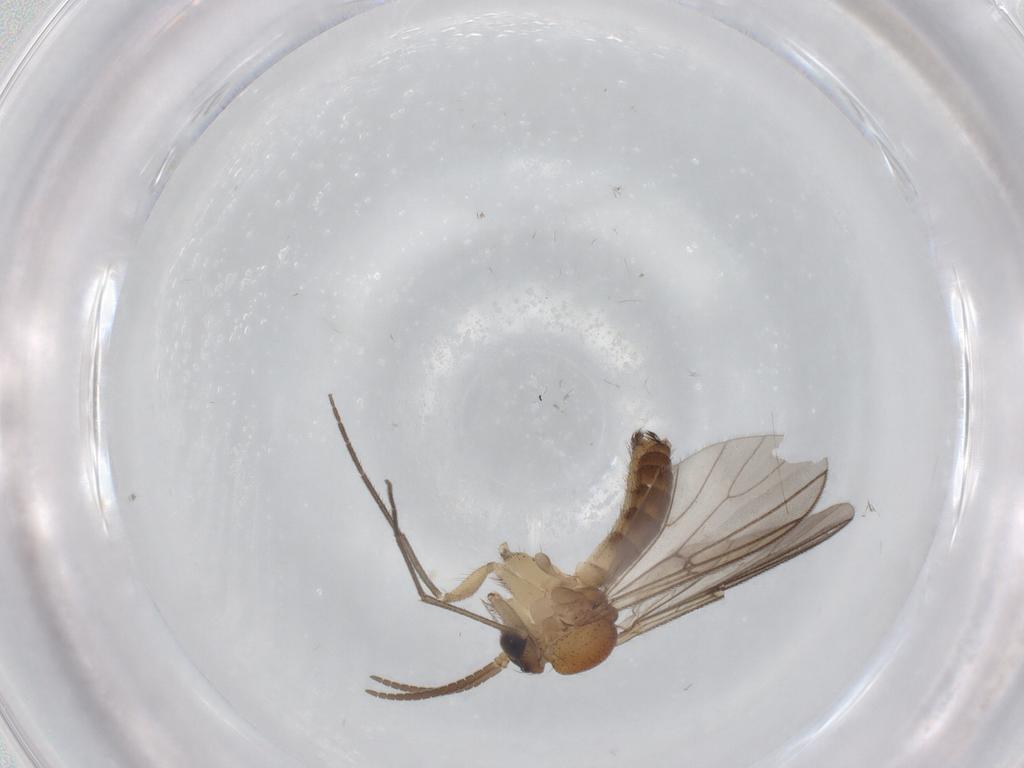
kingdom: Animalia
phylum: Arthropoda
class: Insecta
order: Diptera
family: Mycetophilidae
